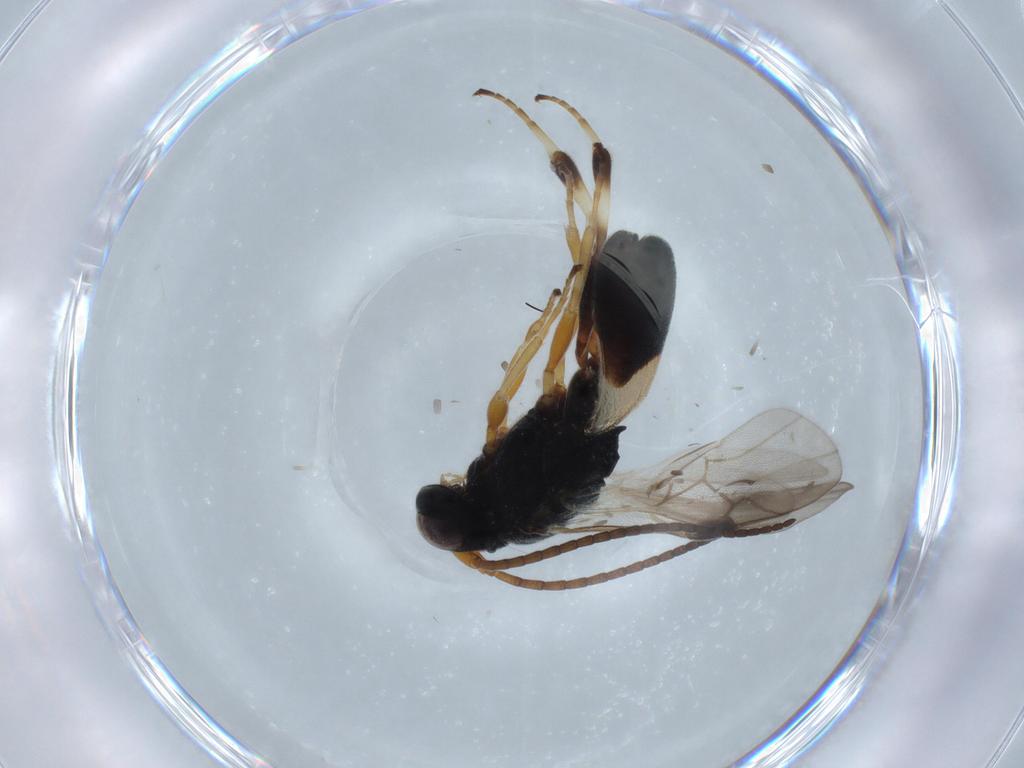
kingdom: Animalia
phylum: Arthropoda
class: Insecta
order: Hymenoptera
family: Braconidae
